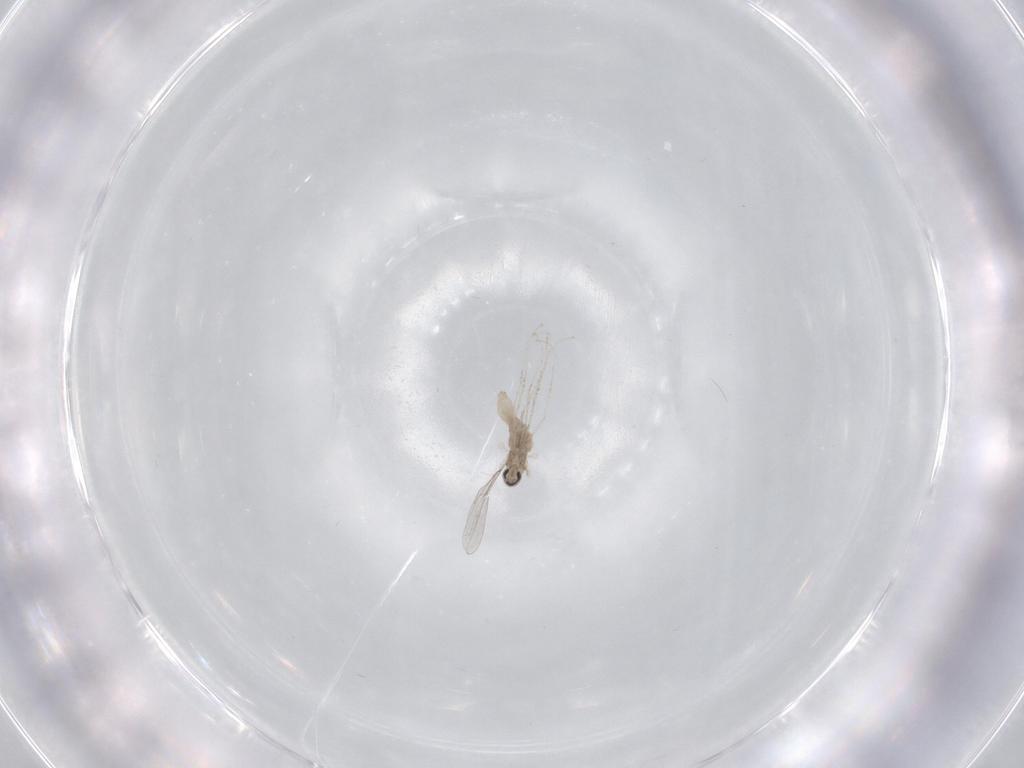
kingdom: Animalia
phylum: Arthropoda
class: Insecta
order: Diptera
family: Cecidomyiidae
